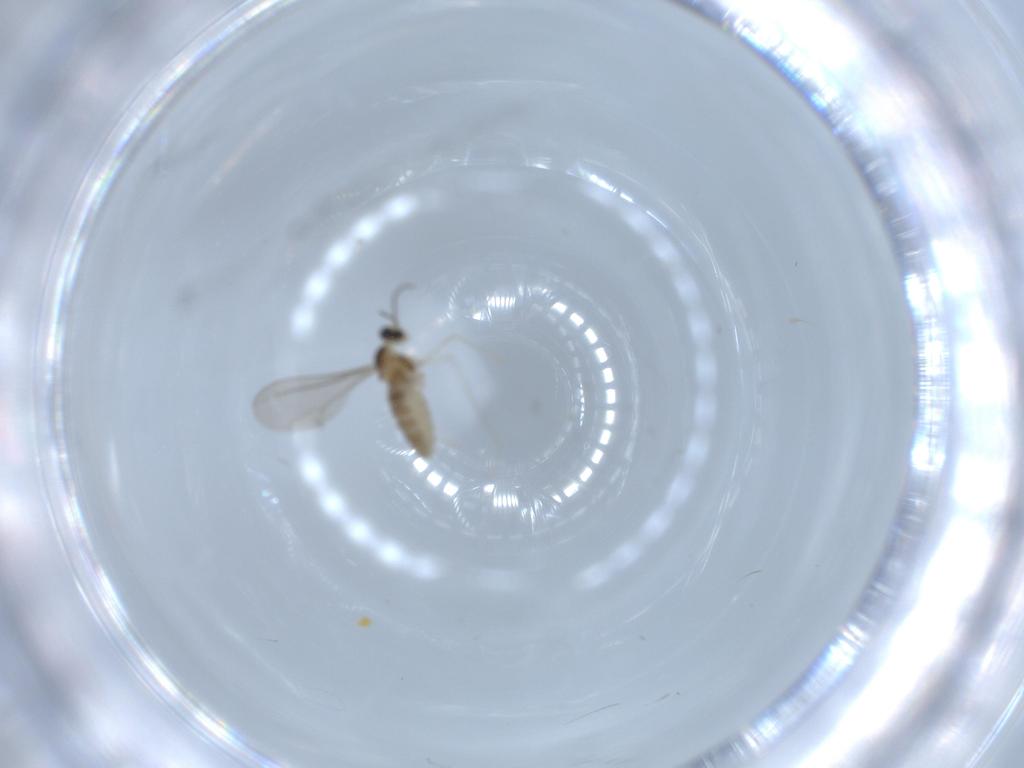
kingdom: Animalia
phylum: Arthropoda
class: Insecta
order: Diptera
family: Cecidomyiidae
